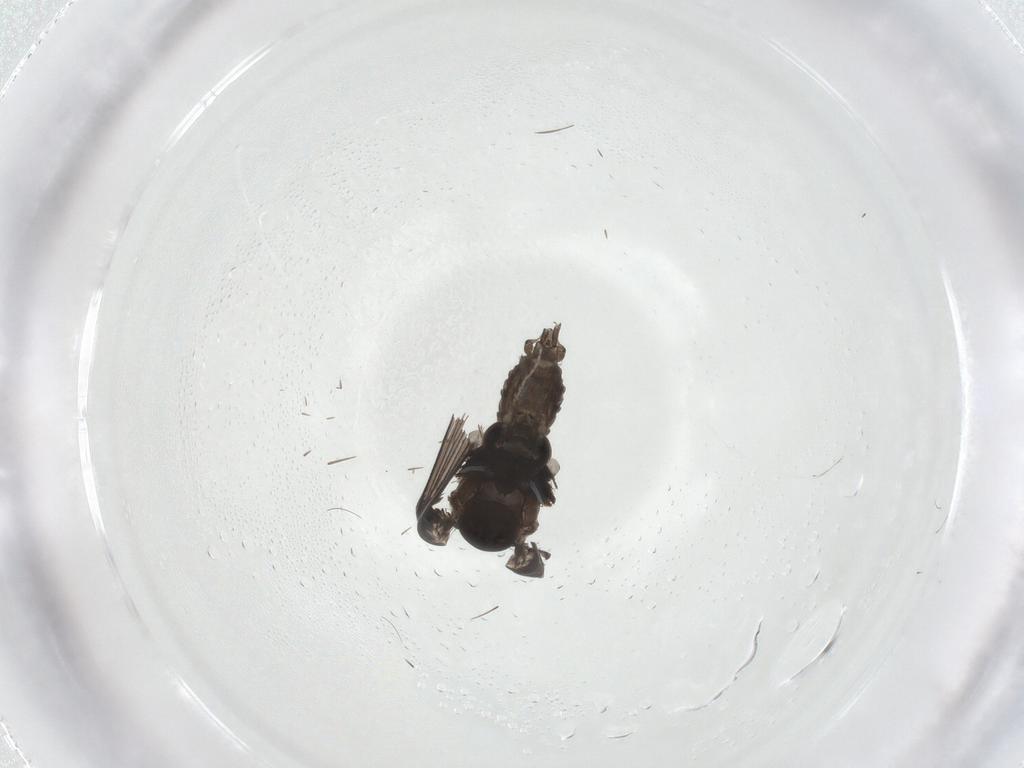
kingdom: Animalia
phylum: Arthropoda
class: Insecta
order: Diptera
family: Psychodidae
